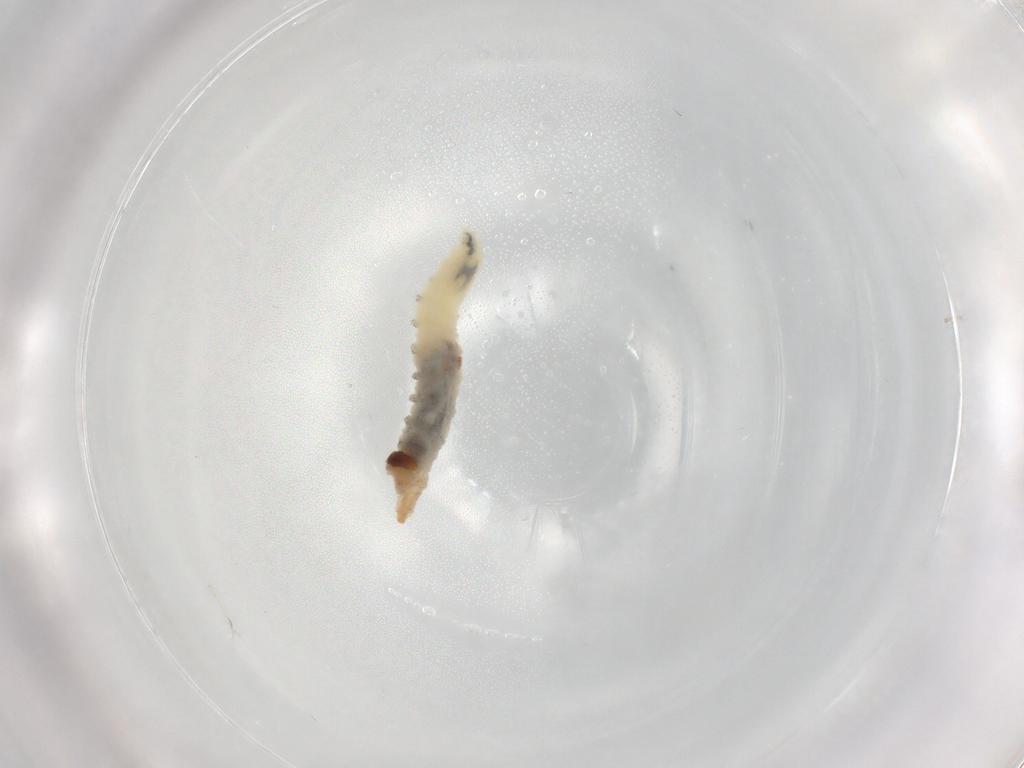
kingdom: Animalia
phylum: Arthropoda
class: Insecta
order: Diptera
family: Drosophilidae
